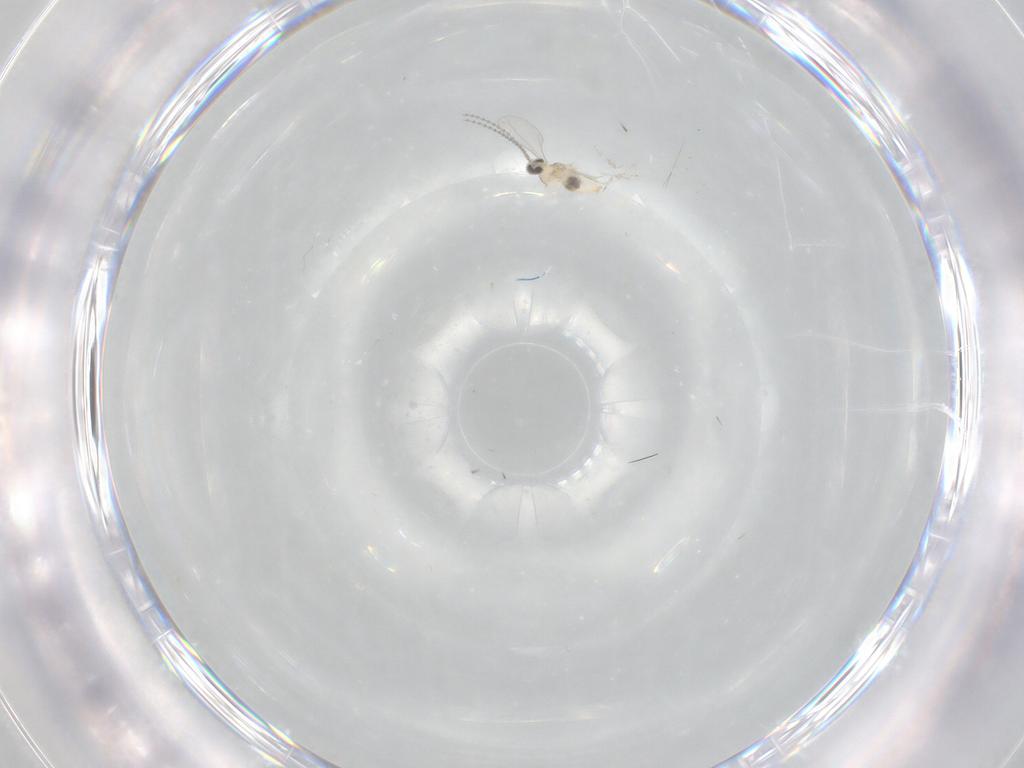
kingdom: Animalia
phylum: Arthropoda
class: Insecta
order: Diptera
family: Cecidomyiidae
